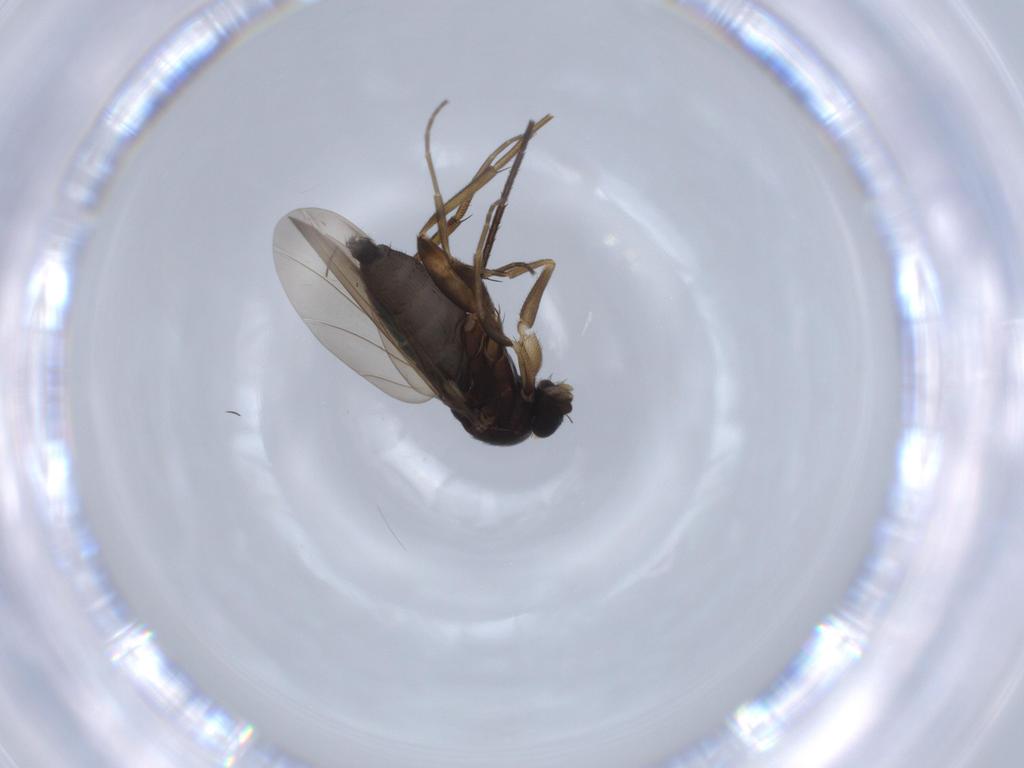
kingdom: Animalia
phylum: Arthropoda
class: Insecta
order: Diptera
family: Phoridae
